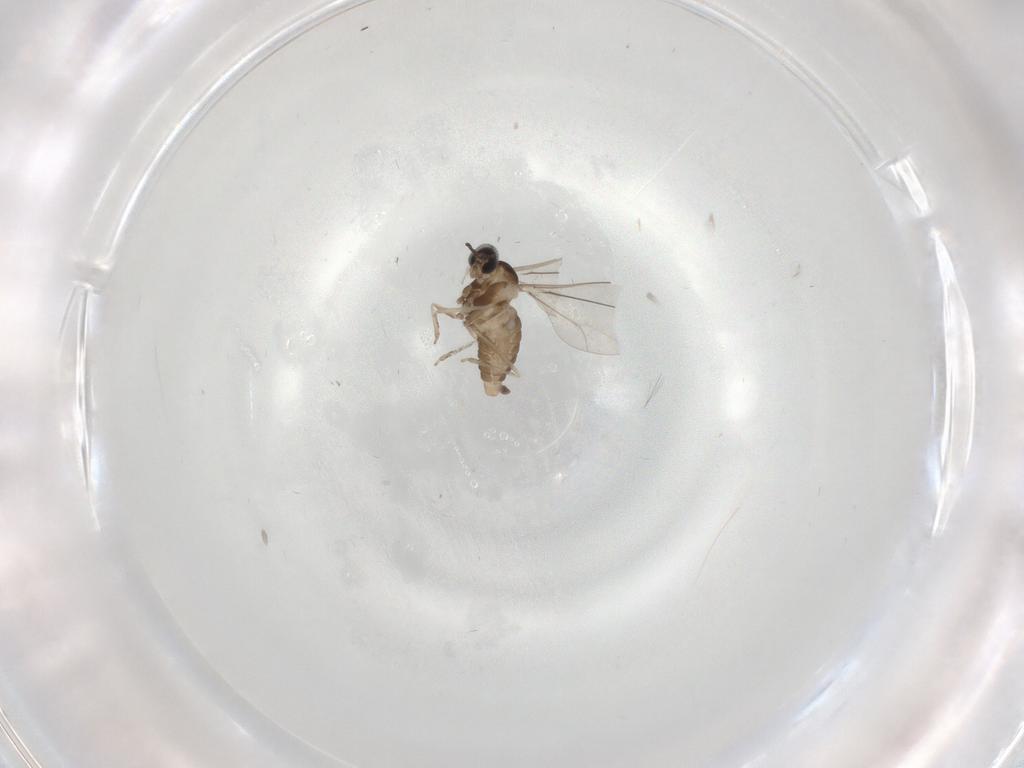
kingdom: Animalia
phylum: Arthropoda
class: Insecta
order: Diptera
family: Cecidomyiidae
